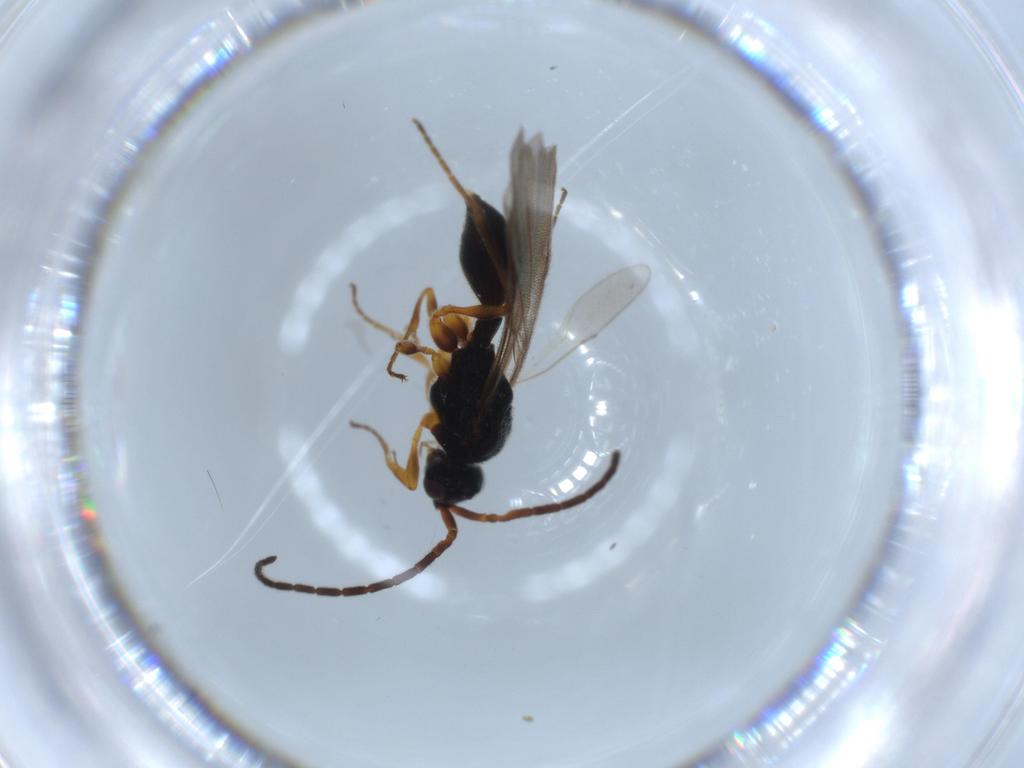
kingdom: Animalia
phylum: Arthropoda
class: Insecta
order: Hymenoptera
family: Diapriidae
